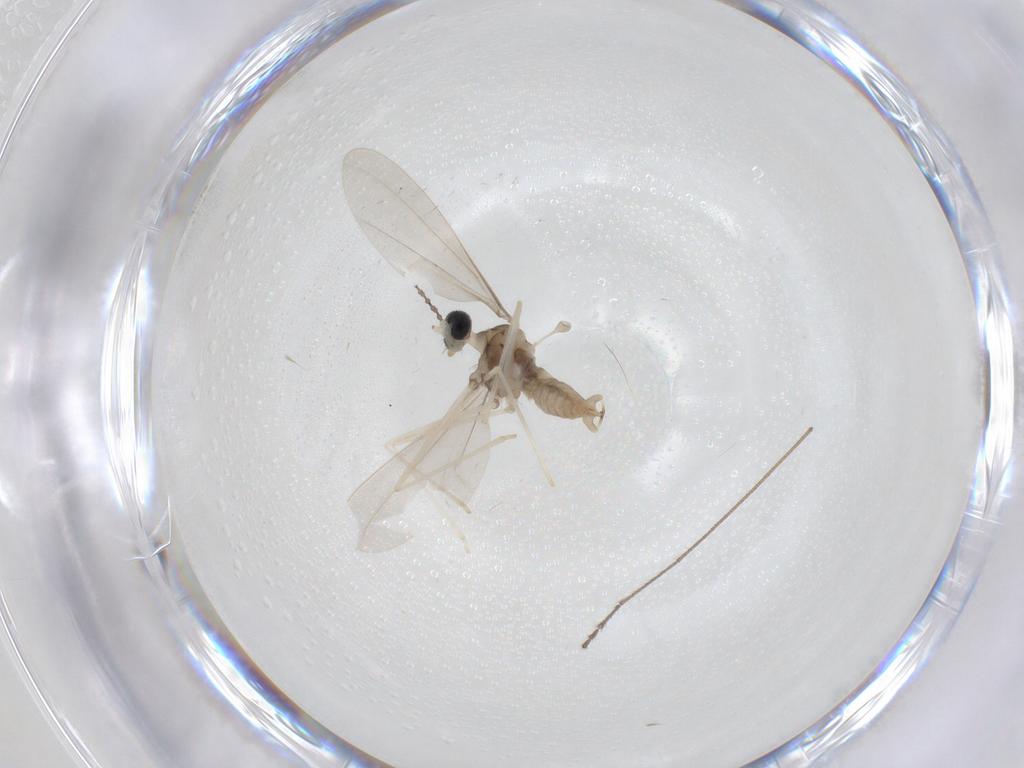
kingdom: Animalia
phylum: Arthropoda
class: Insecta
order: Diptera
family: Limoniidae
